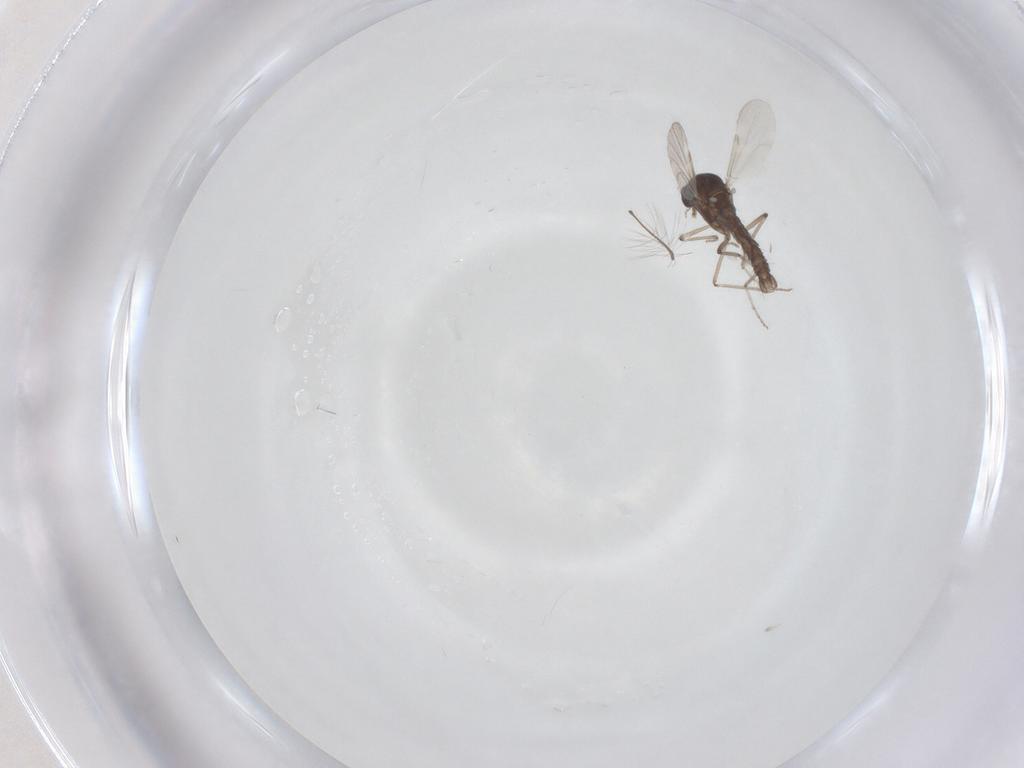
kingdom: Animalia
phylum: Arthropoda
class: Insecta
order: Diptera
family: Chironomidae
